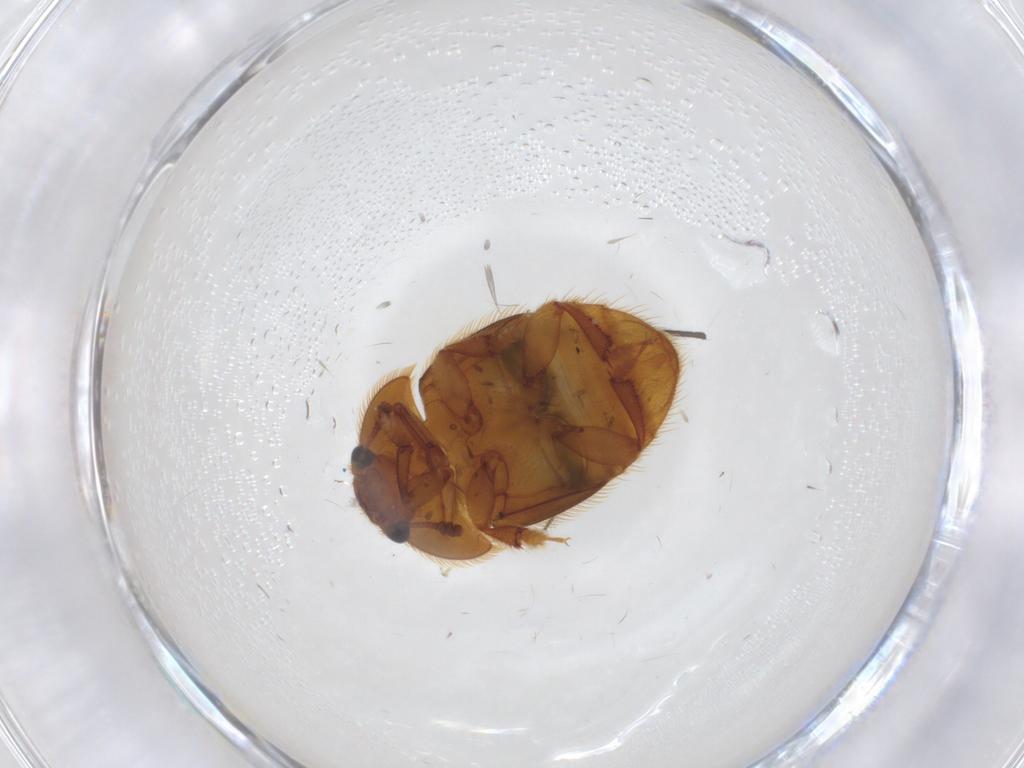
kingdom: Animalia
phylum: Arthropoda
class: Insecta
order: Coleoptera
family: Nitidulidae
